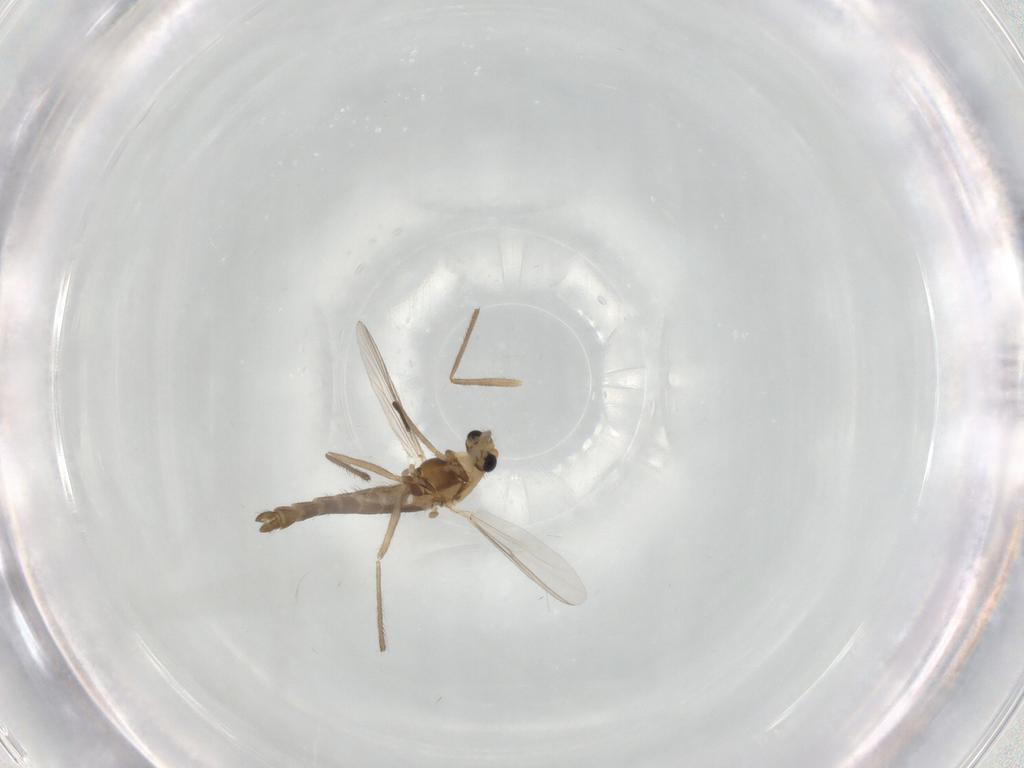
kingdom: Animalia
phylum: Arthropoda
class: Insecta
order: Diptera
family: Chironomidae
